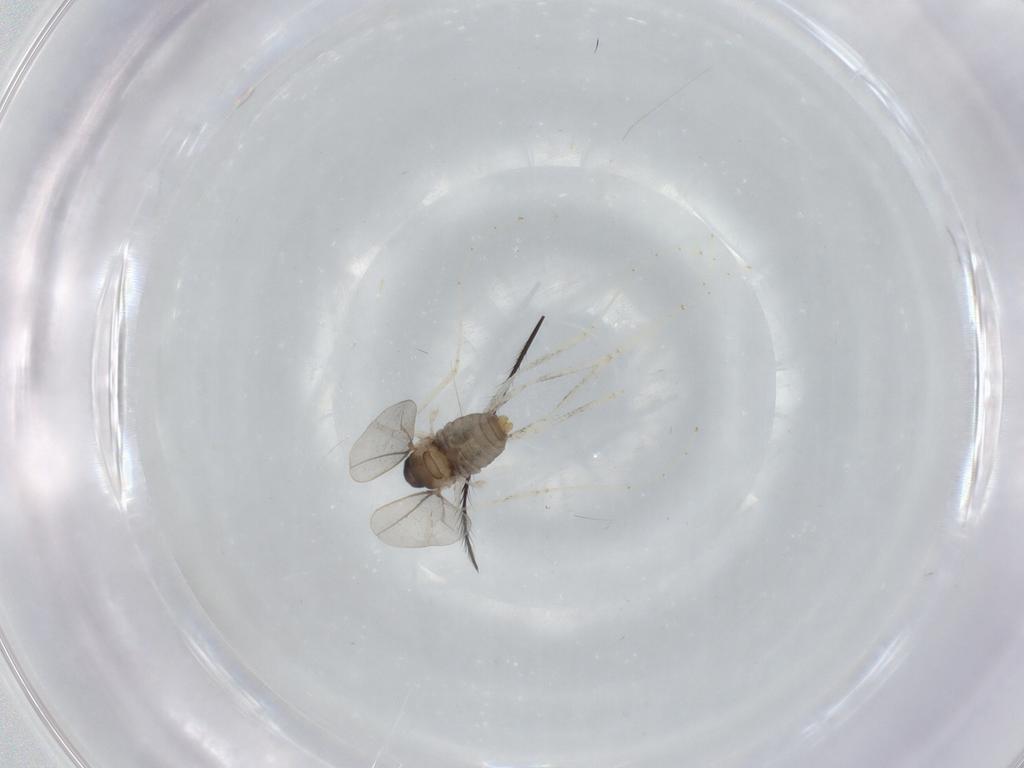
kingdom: Animalia
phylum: Arthropoda
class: Insecta
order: Diptera
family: Cecidomyiidae
